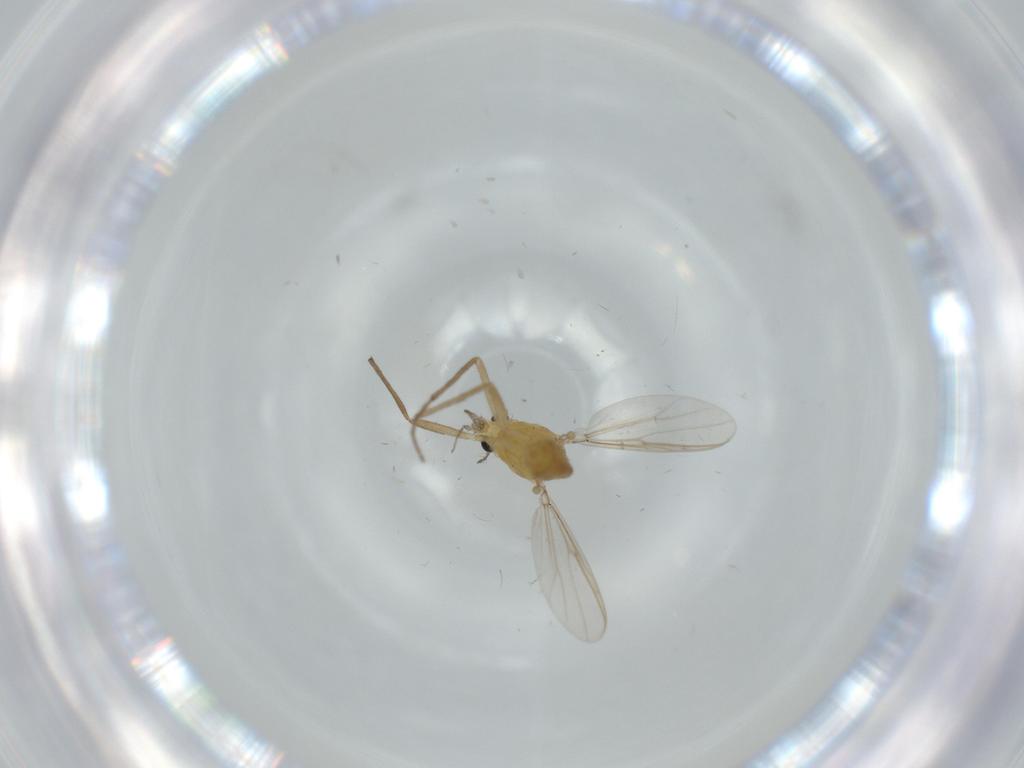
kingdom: Animalia
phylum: Arthropoda
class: Insecta
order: Diptera
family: Chironomidae
